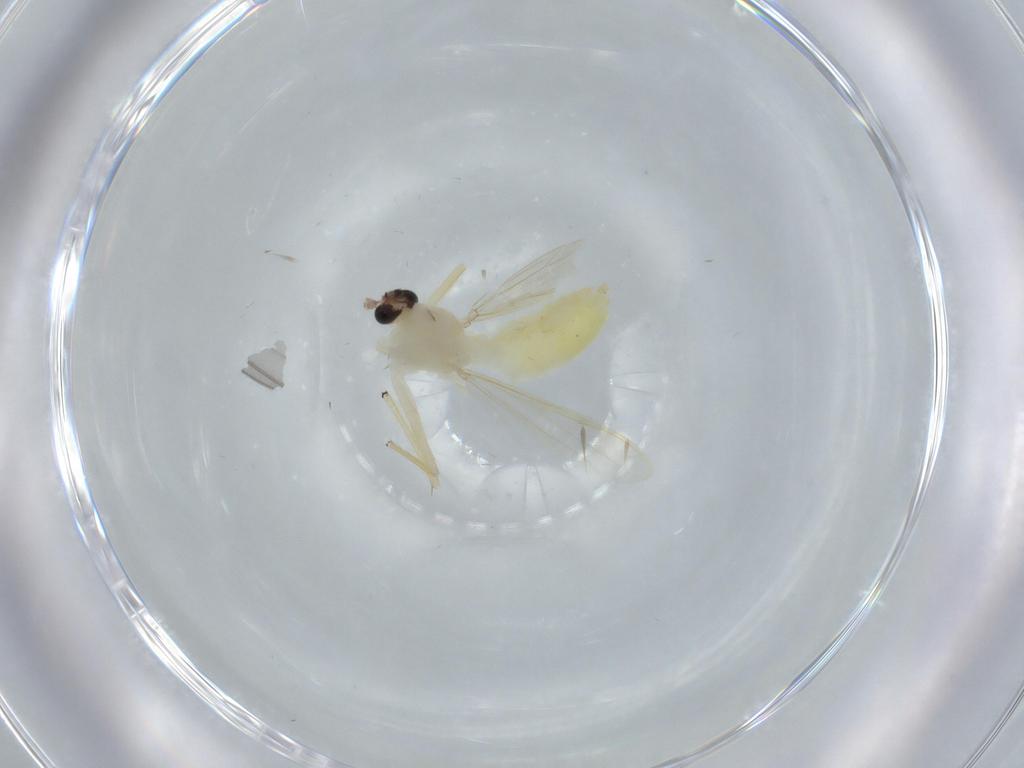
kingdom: Animalia
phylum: Arthropoda
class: Insecta
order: Diptera
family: Chironomidae
